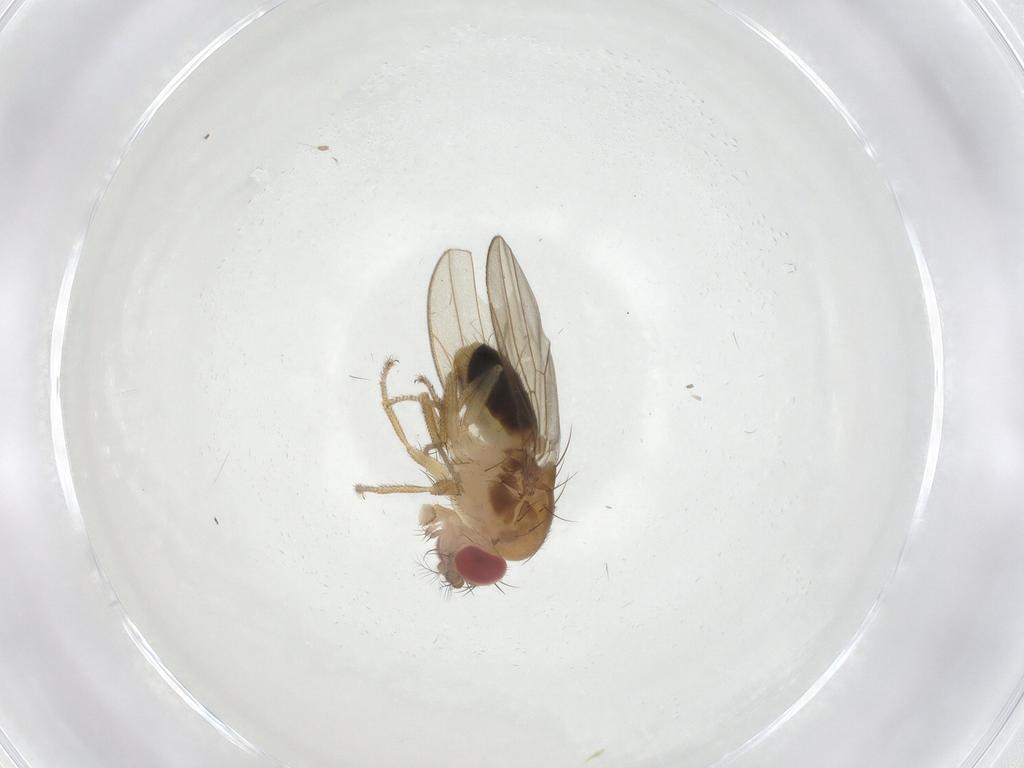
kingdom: Animalia
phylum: Arthropoda
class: Insecta
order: Diptera
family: Drosophilidae
